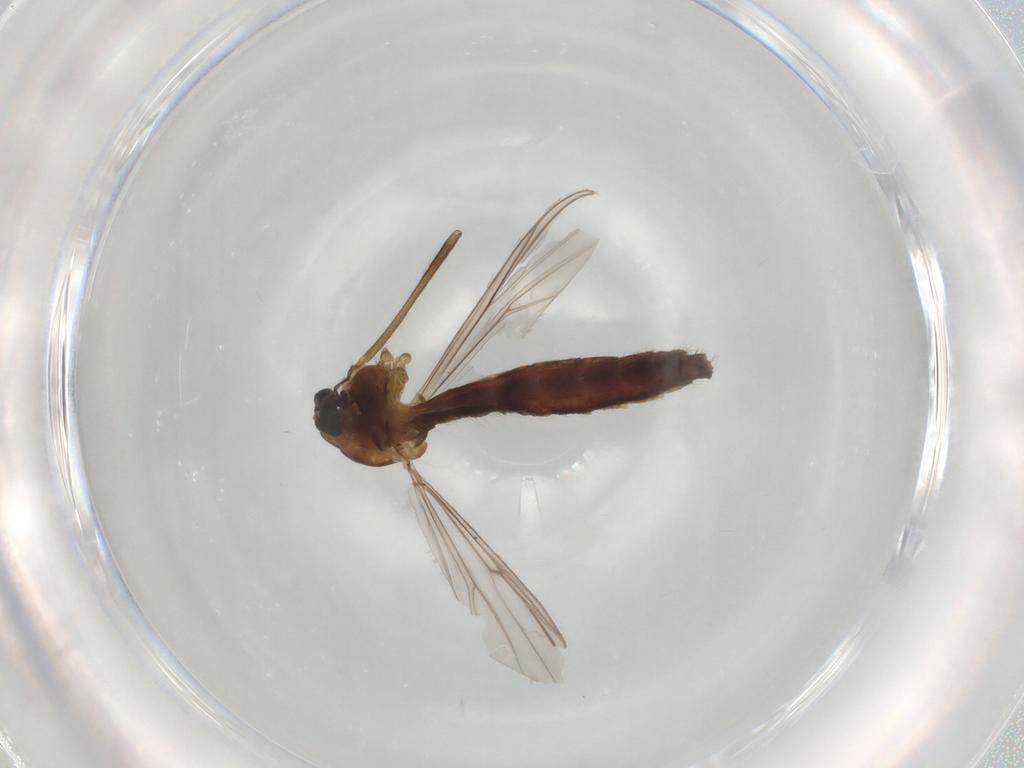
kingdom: Animalia
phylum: Arthropoda
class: Insecta
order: Diptera
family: Chironomidae
